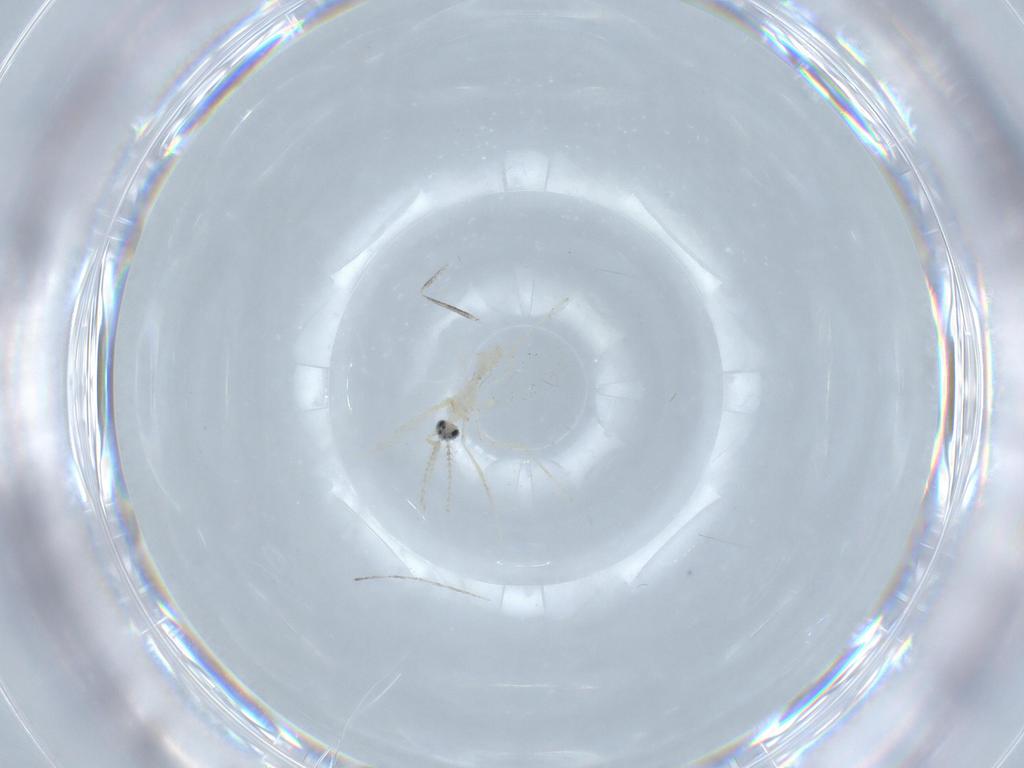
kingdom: Animalia
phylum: Arthropoda
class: Insecta
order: Diptera
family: Cecidomyiidae
